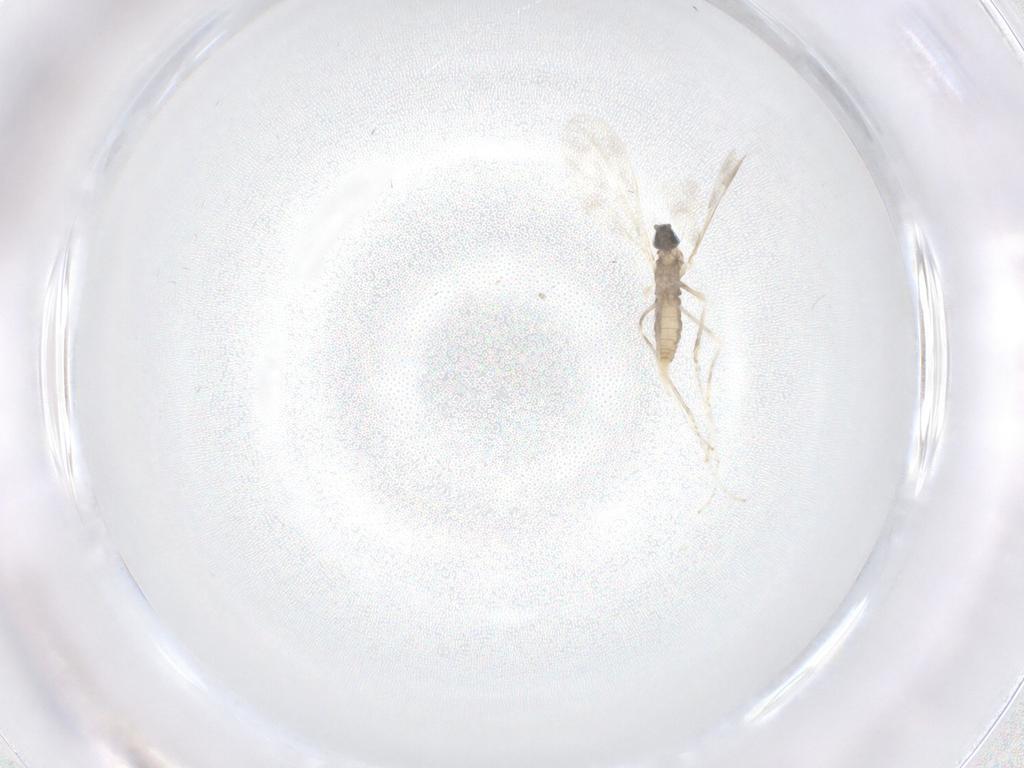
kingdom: Animalia
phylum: Arthropoda
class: Insecta
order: Diptera
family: Cecidomyiidae
